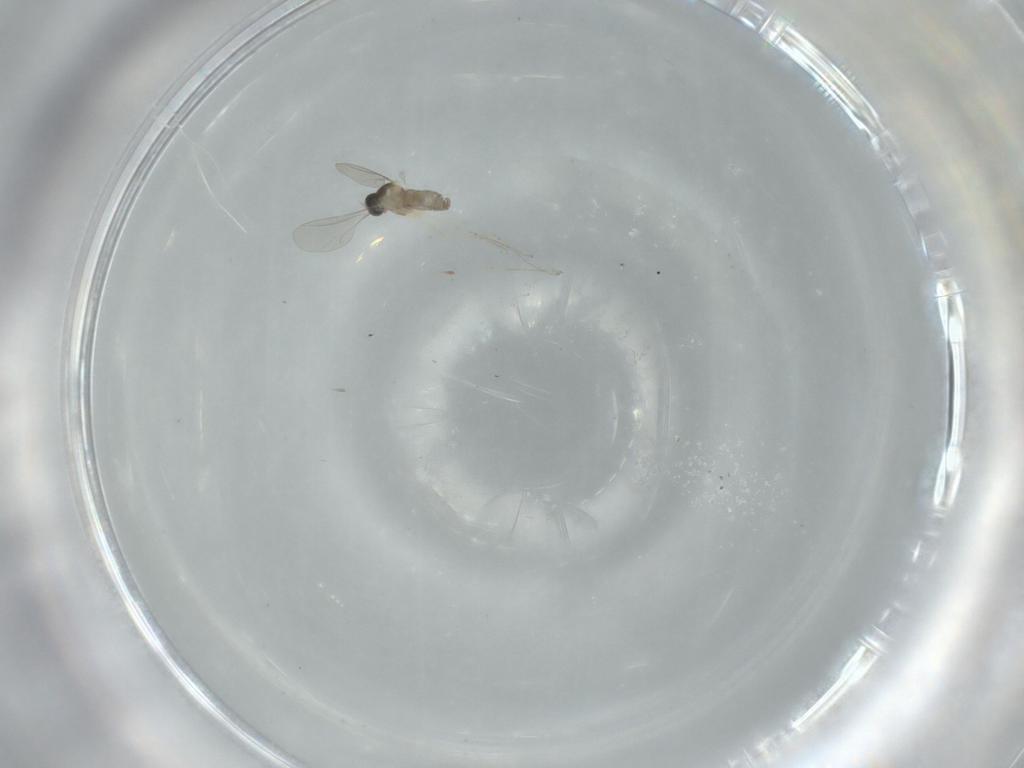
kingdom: Animalia
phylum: Arthropoda
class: Insecta
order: Diptera
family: Cecidomyiidae
